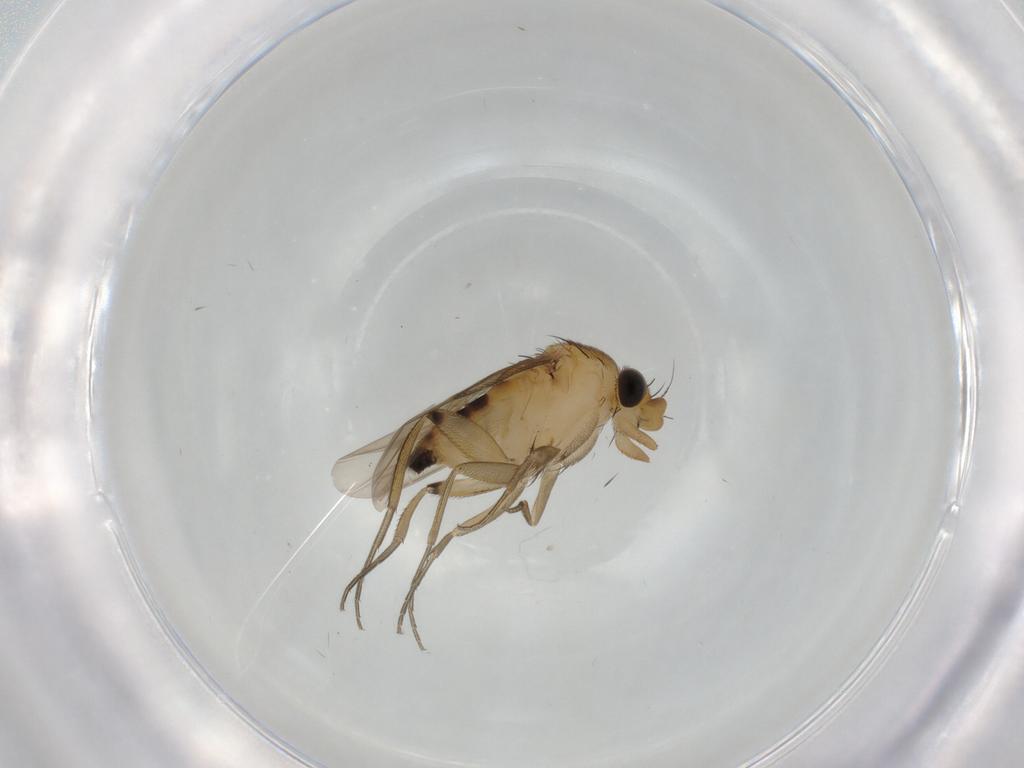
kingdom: Animalia
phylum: Arthropoda
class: Insecta
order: Diptera
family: Phoridae
